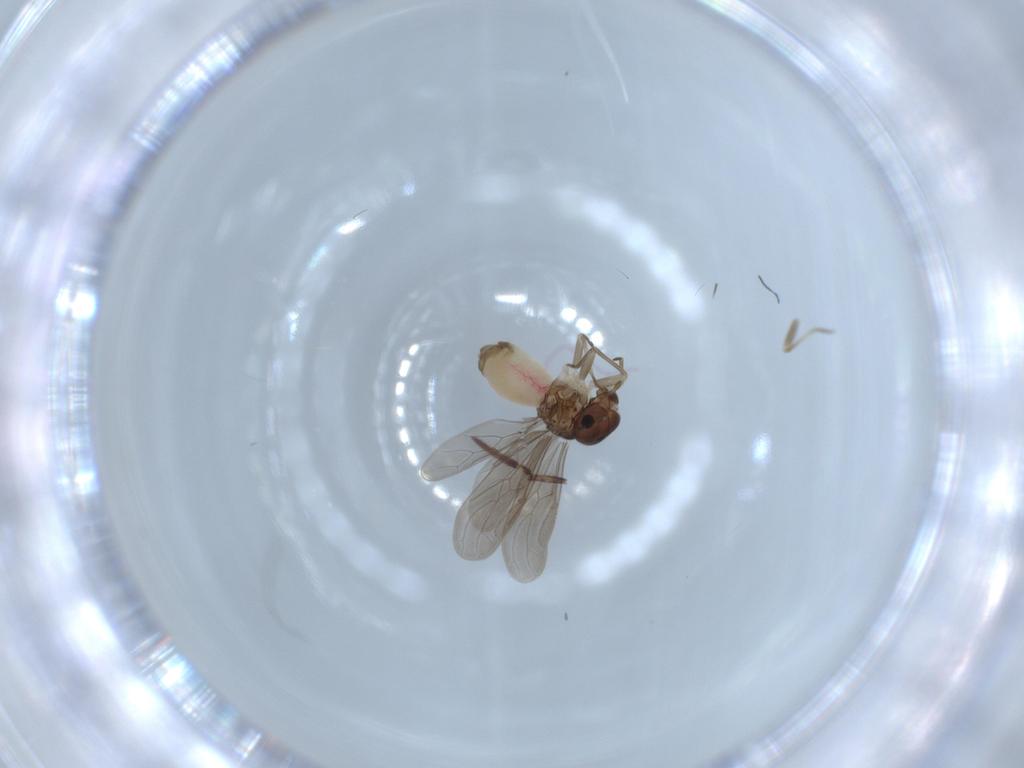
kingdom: Animalia
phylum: Arthropoda
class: Insecta
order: Psocodea
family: Asiopsocidae
